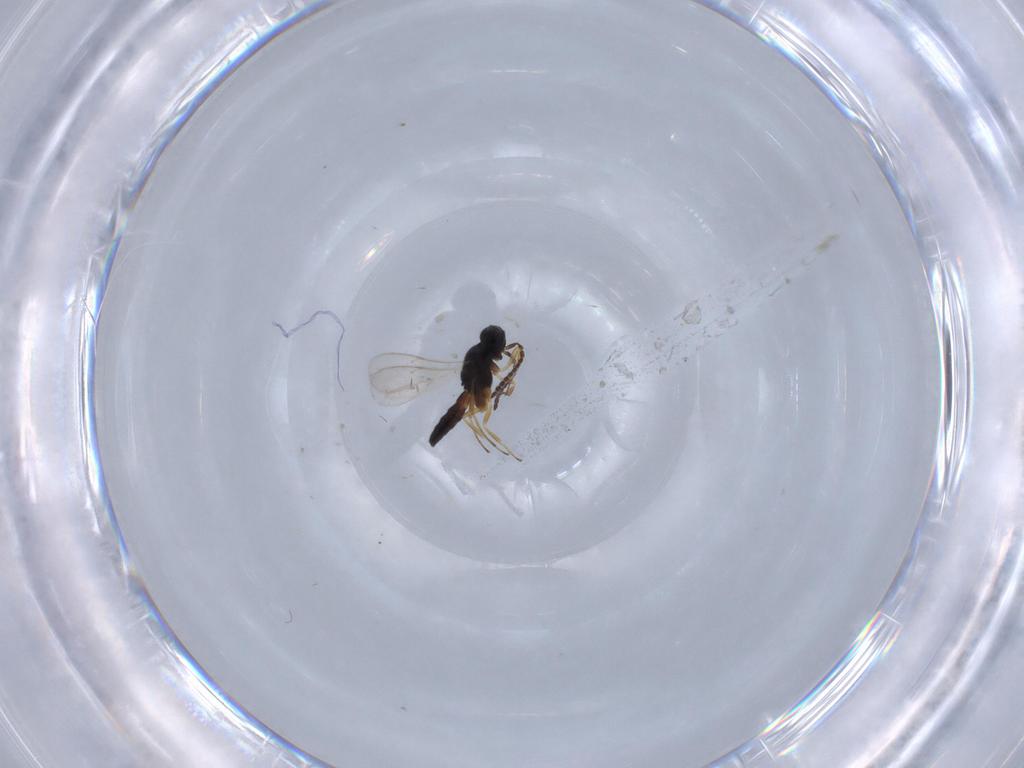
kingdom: Animalia
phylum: Arthropoda
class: Insecta
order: Hymenoptera
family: Scelionidae
